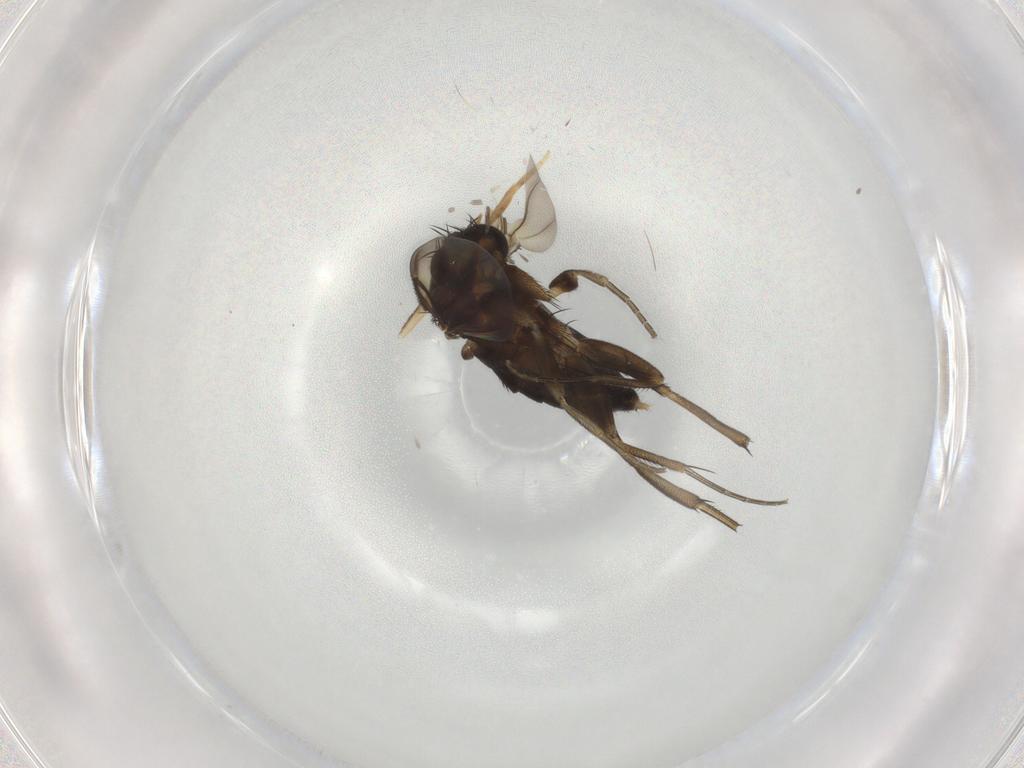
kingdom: Animalia
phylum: Arthropoda
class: Insecta
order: Diptera
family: Phoridae
